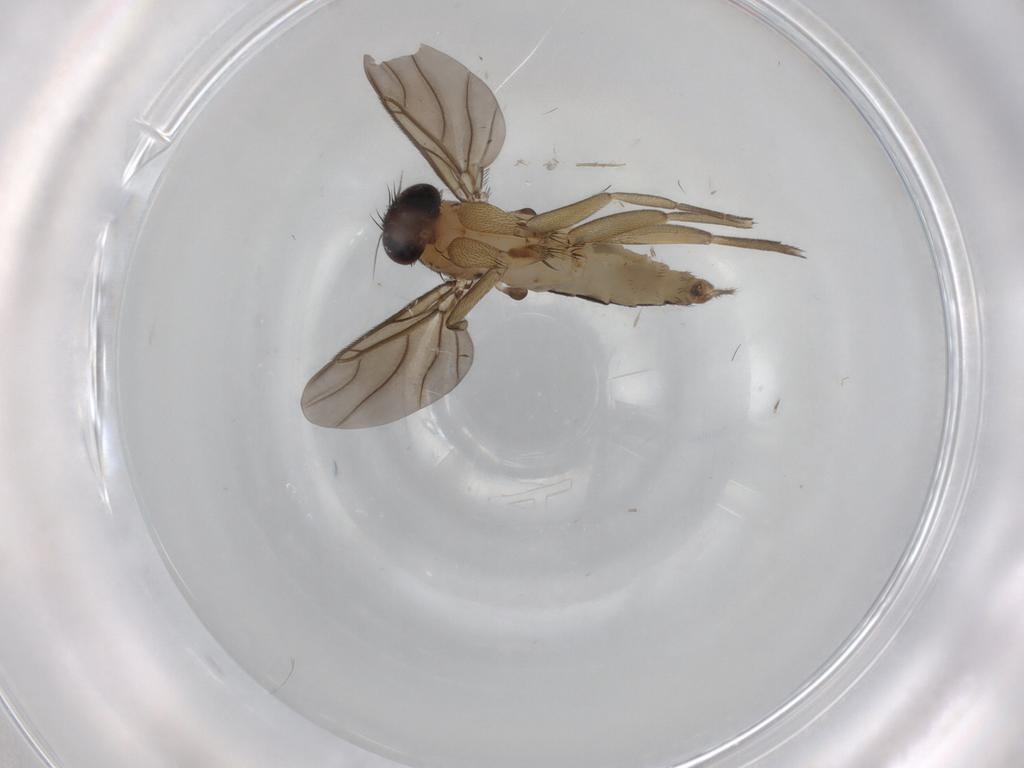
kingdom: Animalia
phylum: Arthropoda
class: Insecta
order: Diptera
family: Phoridae
